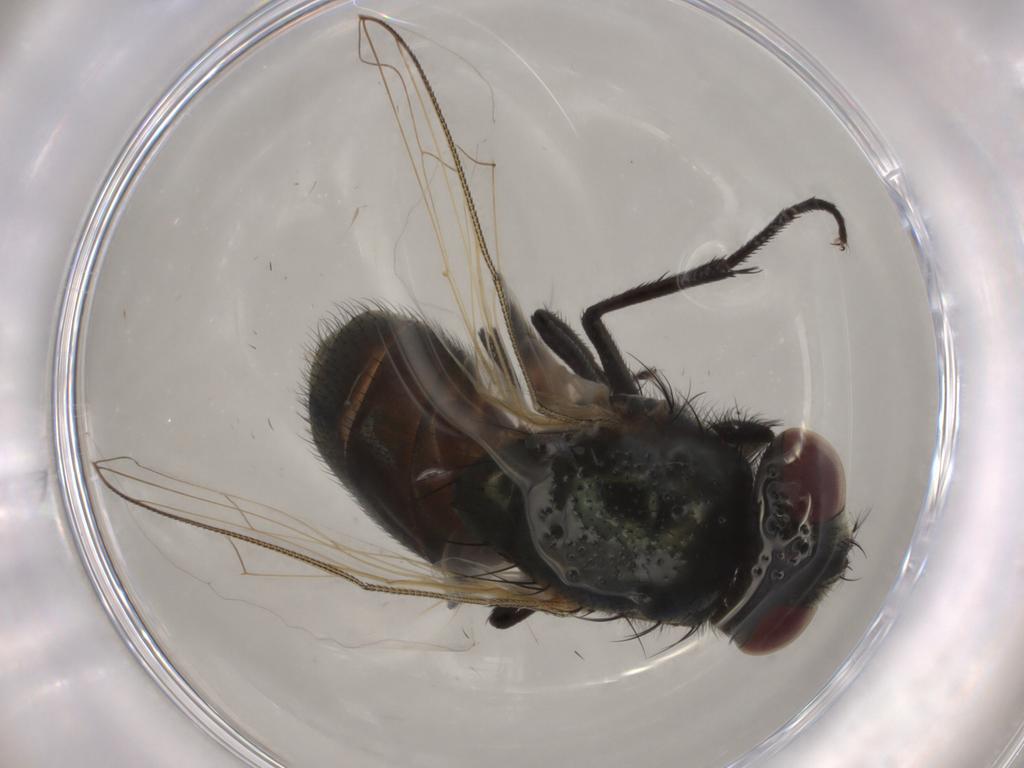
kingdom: Animalia
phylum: Arthropoda
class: Insecta
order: Diptera
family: Muscidae
